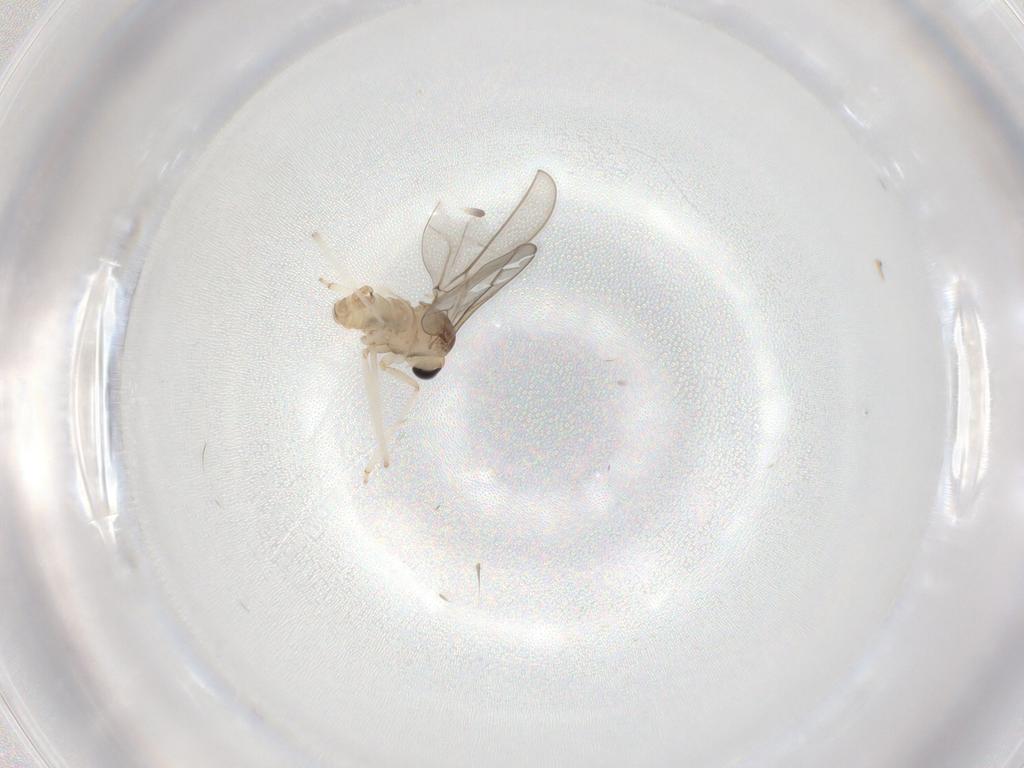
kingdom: Animalia
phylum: Arthropoda
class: Insecta
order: Diptera
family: Cecidomyiidae
